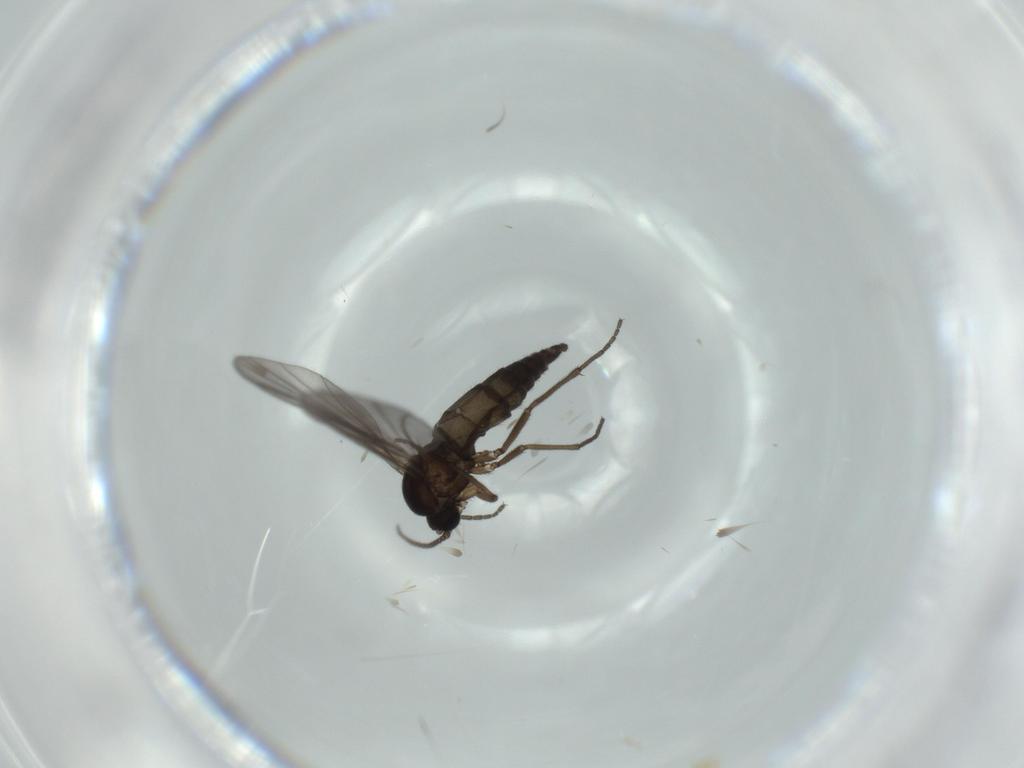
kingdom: Animalia
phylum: Arthropoda
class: Insecta
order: Diptera
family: Sciaridae
